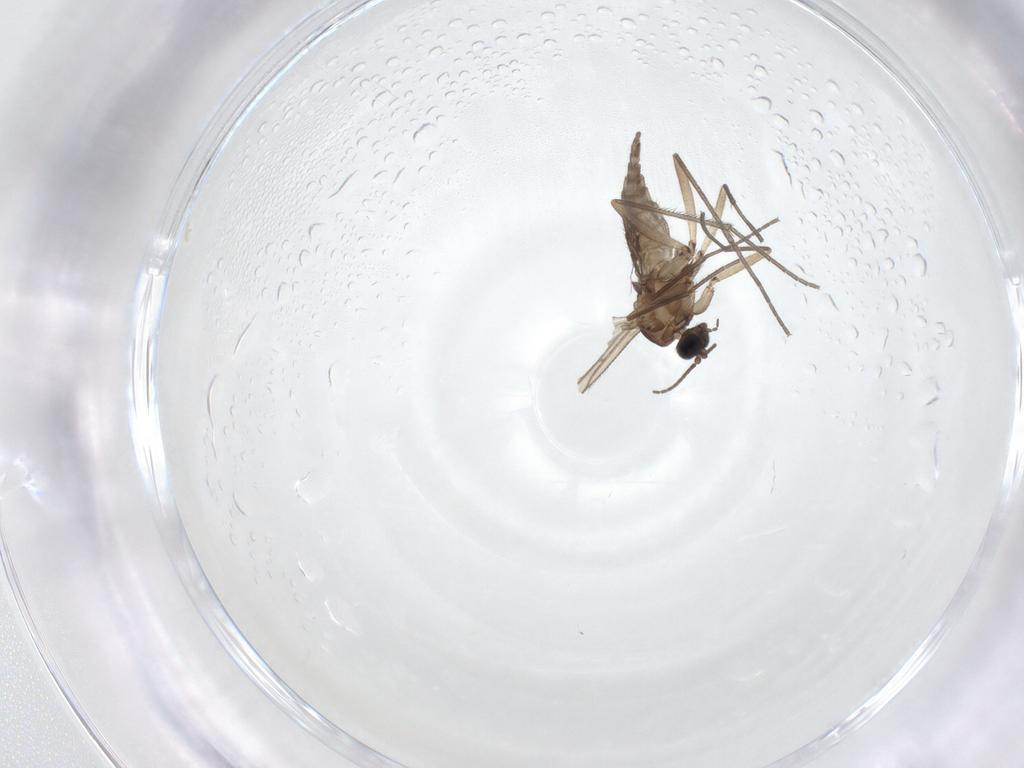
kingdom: Animalia
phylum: Arthropoda
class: Insecta
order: Diptera
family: Sciaridae
